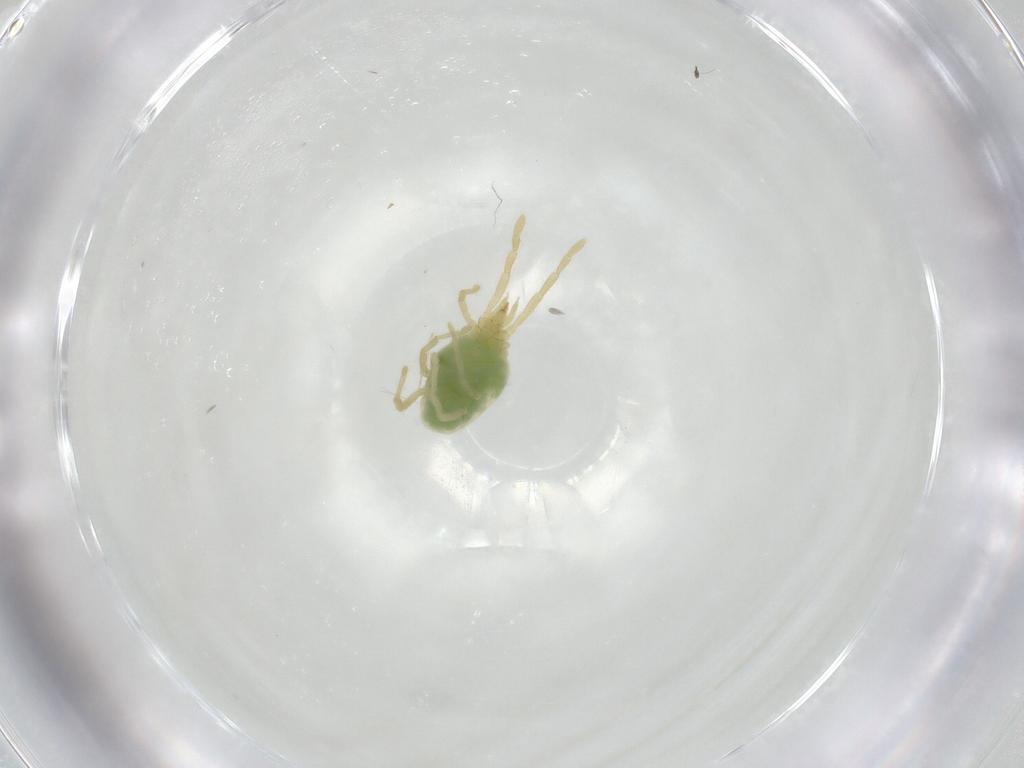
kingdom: Animalia
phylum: Arthropoda
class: Arachnida
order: Trombidiformes
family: Erythraeidae
